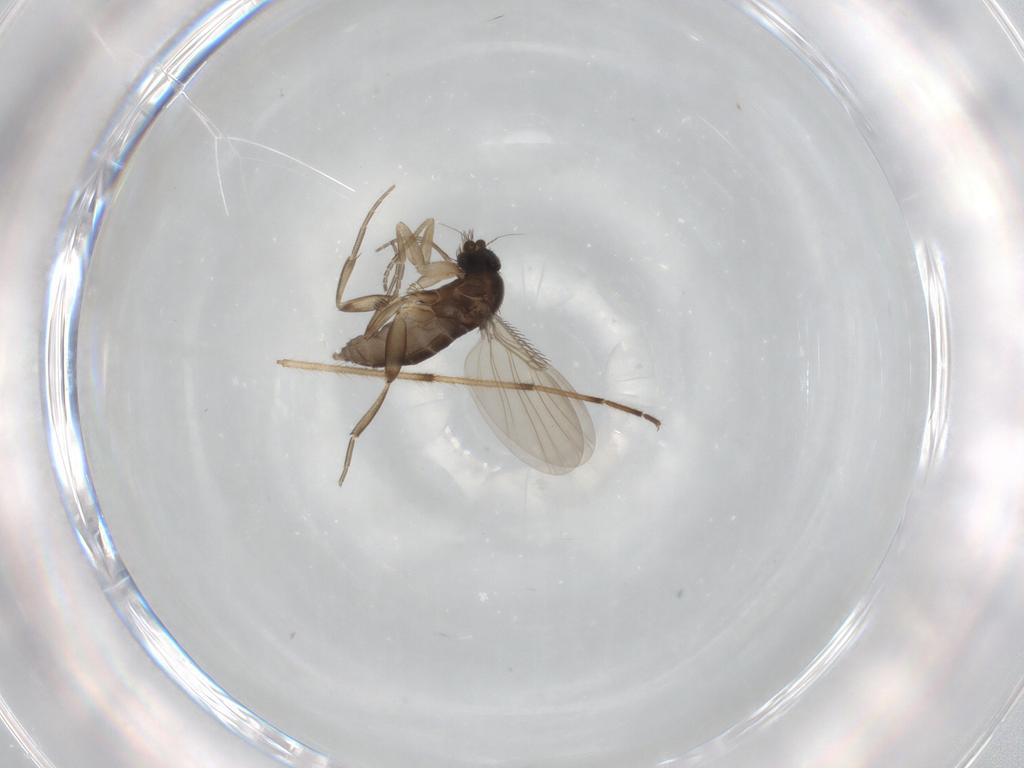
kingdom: Animalia
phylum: Arthropoda
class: Insecta
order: Diptera
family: Phoridae
